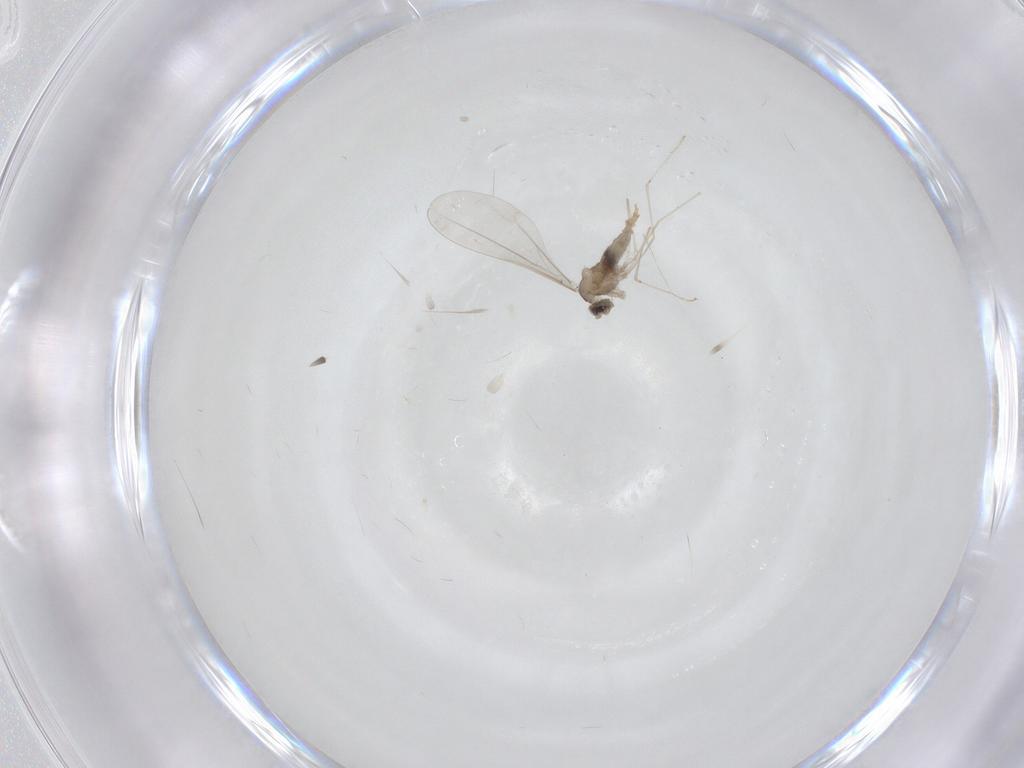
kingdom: Animalia
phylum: Arthropoda
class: Insecta
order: Diptera
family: Cecidomyiidae
